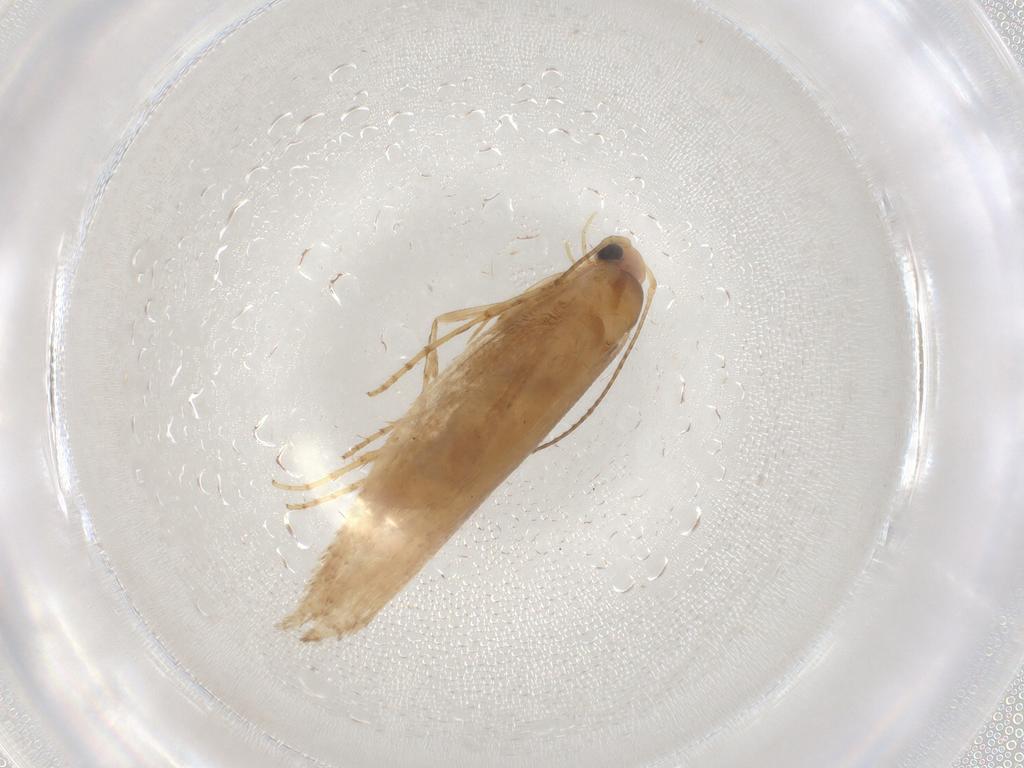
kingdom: Animalia
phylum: Arthropoda
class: Insecta
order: Lepidoptera
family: Argyresthiidae
